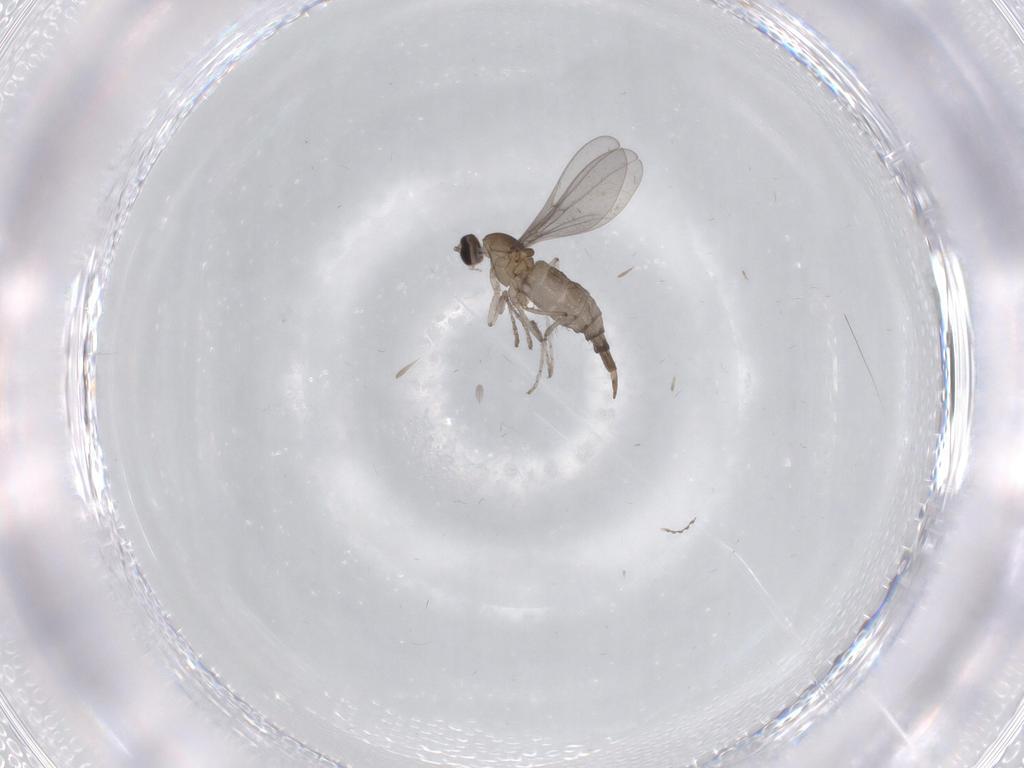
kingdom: Animalia
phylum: Arthropoda
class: Insecta
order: Diptera
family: Cecidomyiidae
